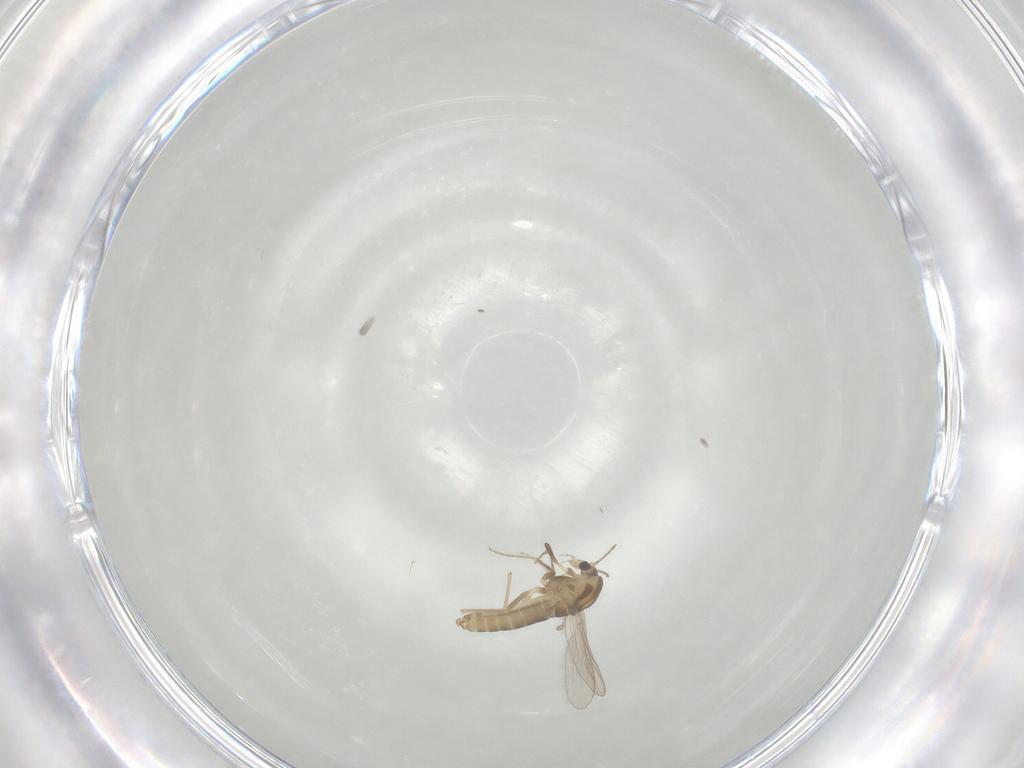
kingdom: Animalia
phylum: Arthropoda
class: Insecta
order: Diptera
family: Chironomidae
